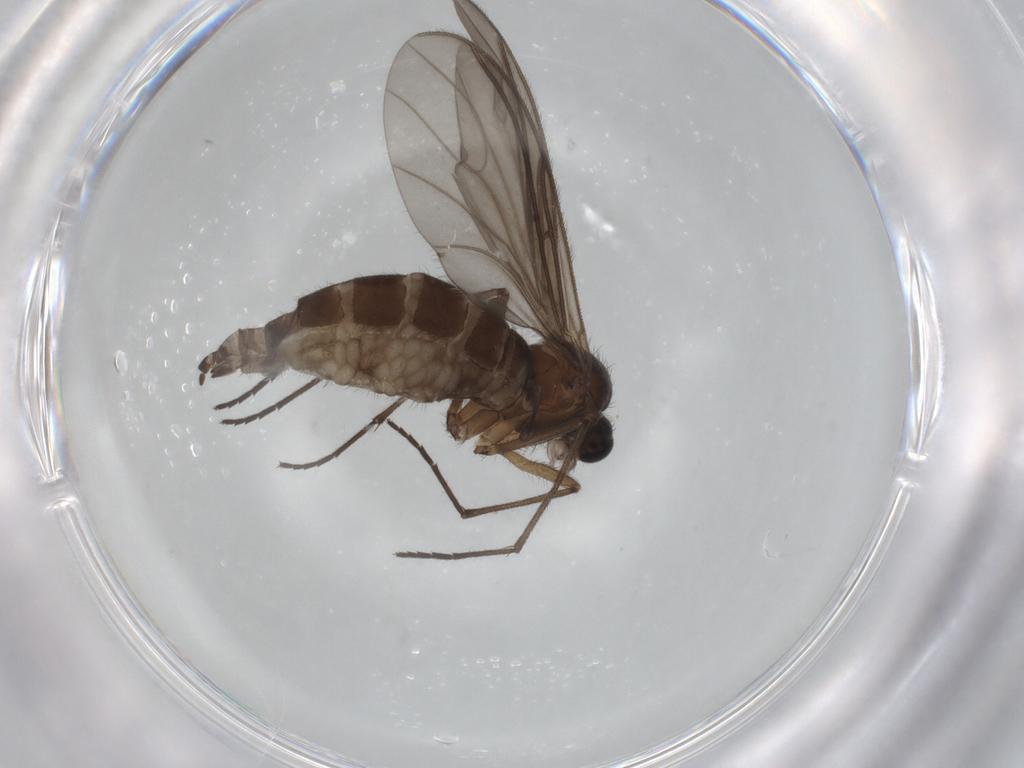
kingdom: Animalia
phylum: Arthropoda
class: Insecta
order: Diptera
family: Sciaridae
